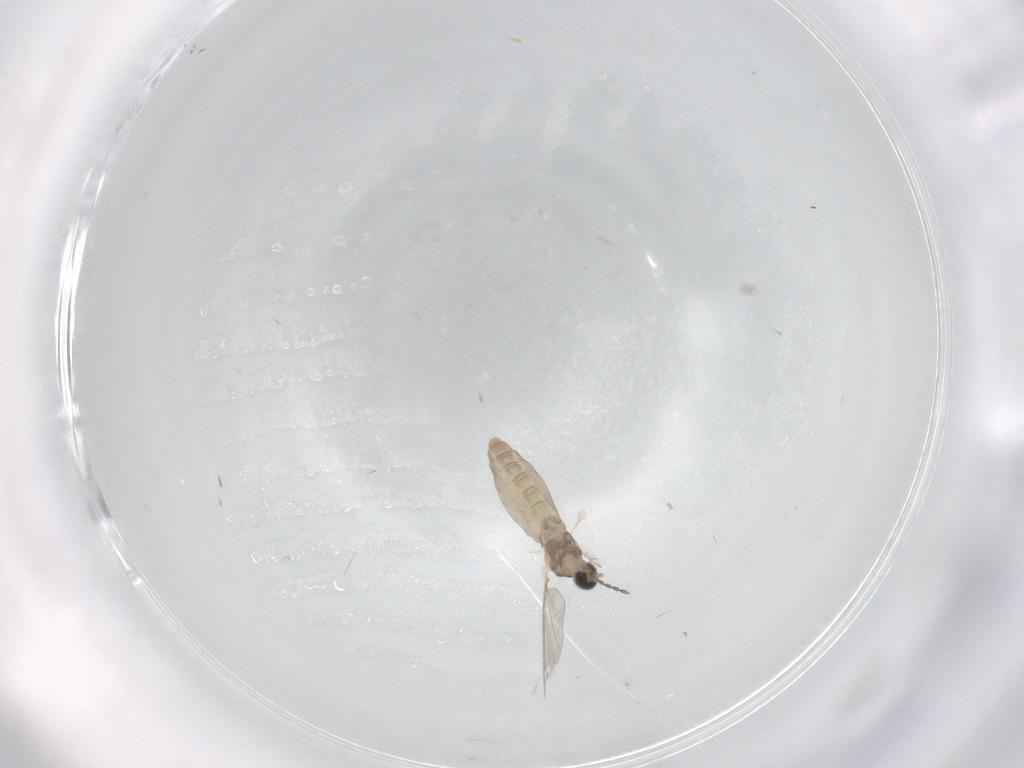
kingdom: Animalia
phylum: Arthropoda
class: Insecta
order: Diptera
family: Cecidomyiidae
